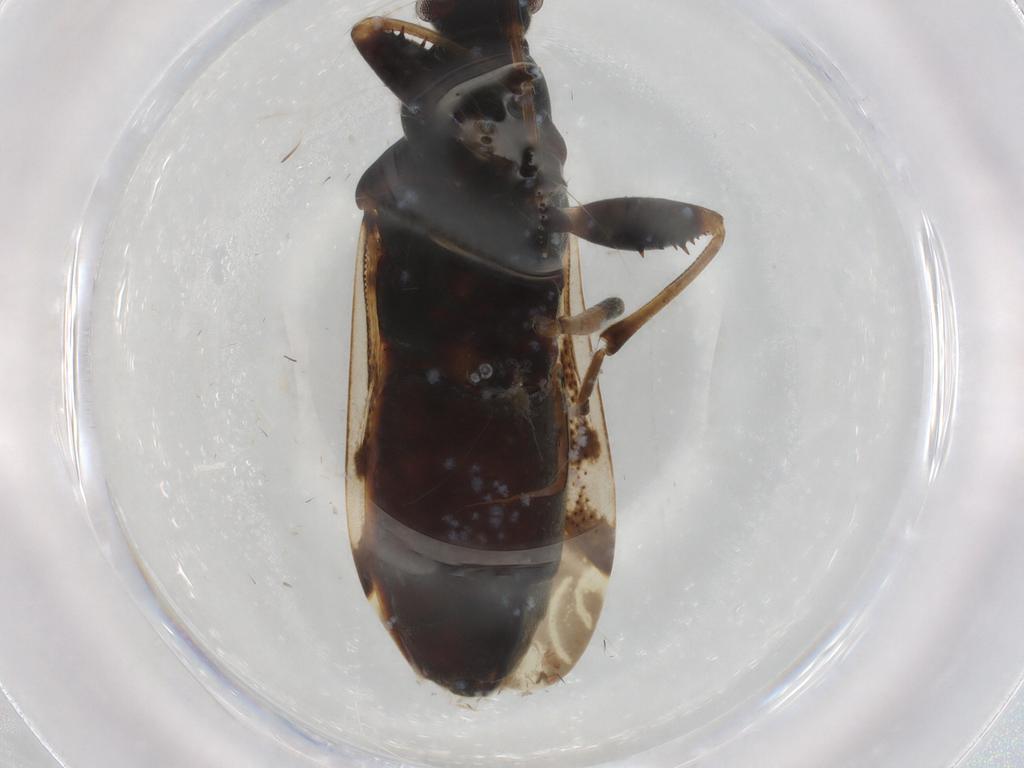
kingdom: Animalia
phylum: Arthropoda
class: Insecta
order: Hemiptera
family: Rhyparochromidae
